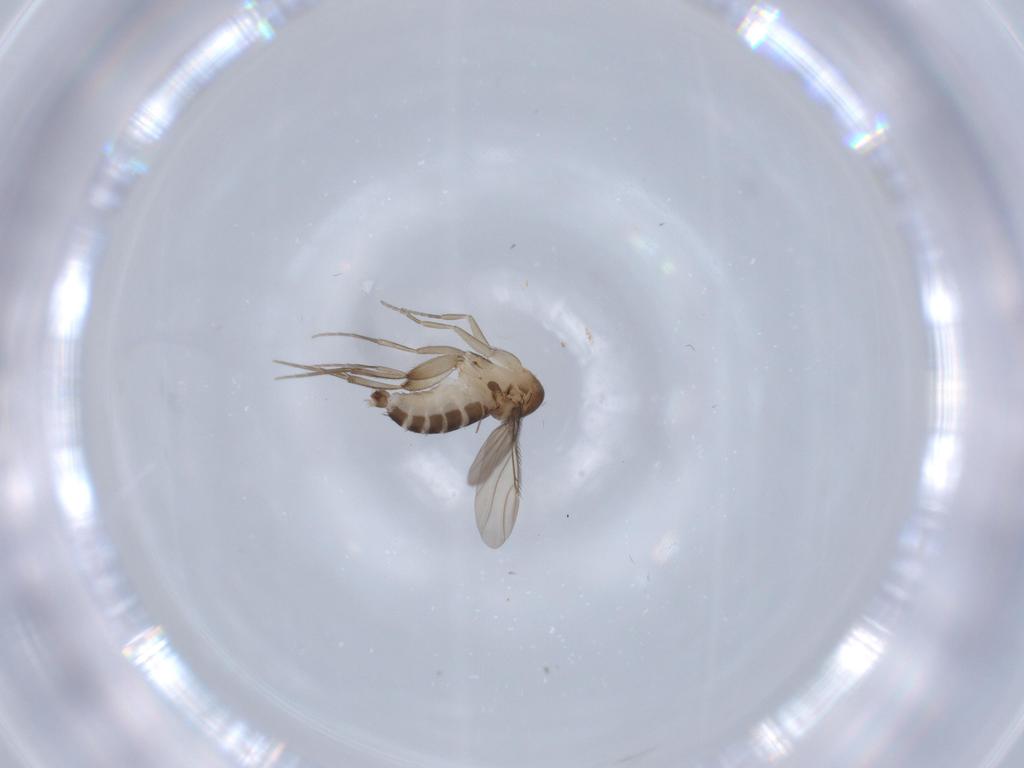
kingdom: Animalia
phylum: Arthropoda
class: Insecta
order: Diptera
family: Phoridae
